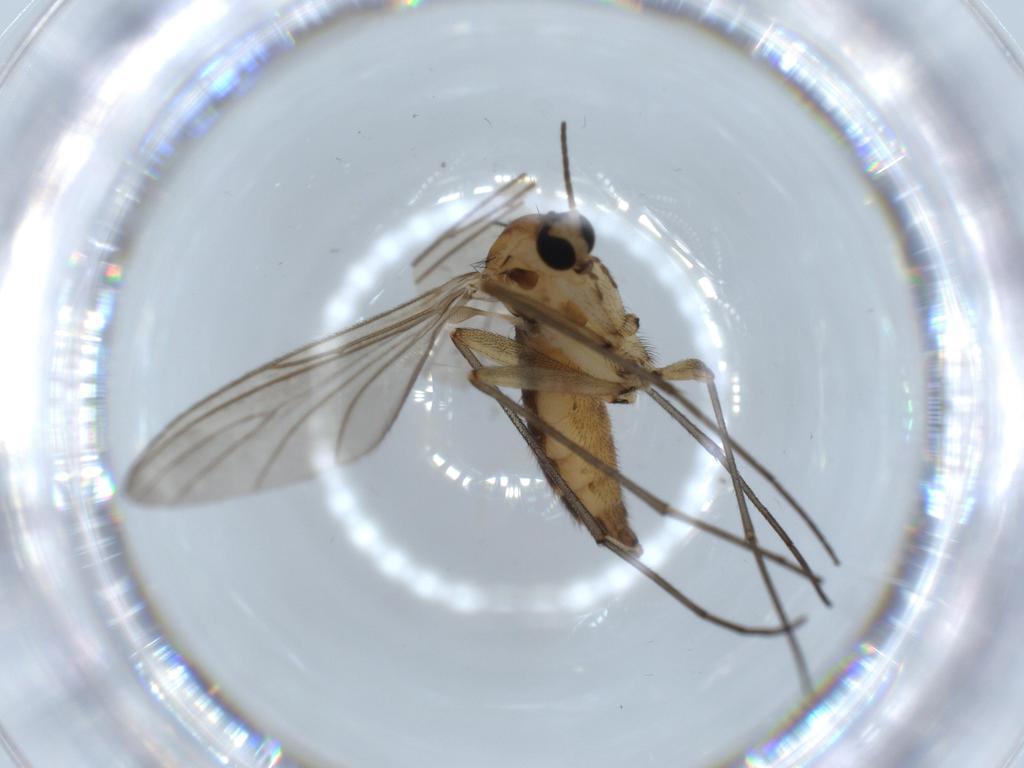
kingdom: Animalia
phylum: Arthropoda
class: Insecta
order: Diptera
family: Sciaridae
